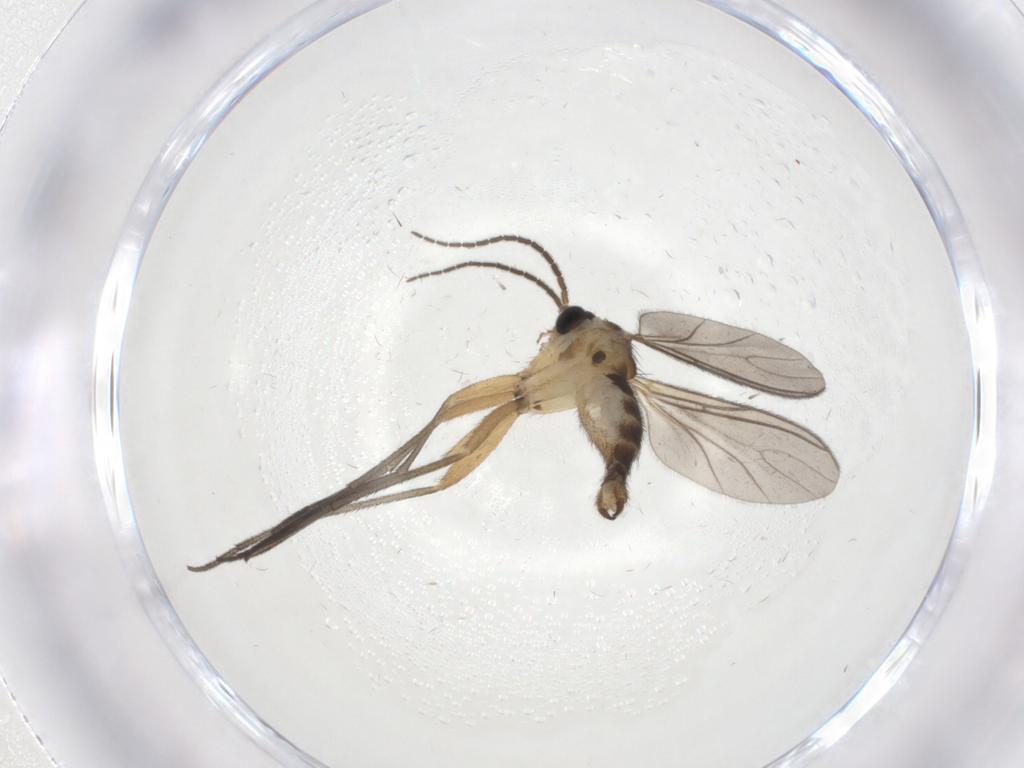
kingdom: Animalia
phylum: Arthropoda
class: Insecta
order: Diptera
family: Sciaridae
